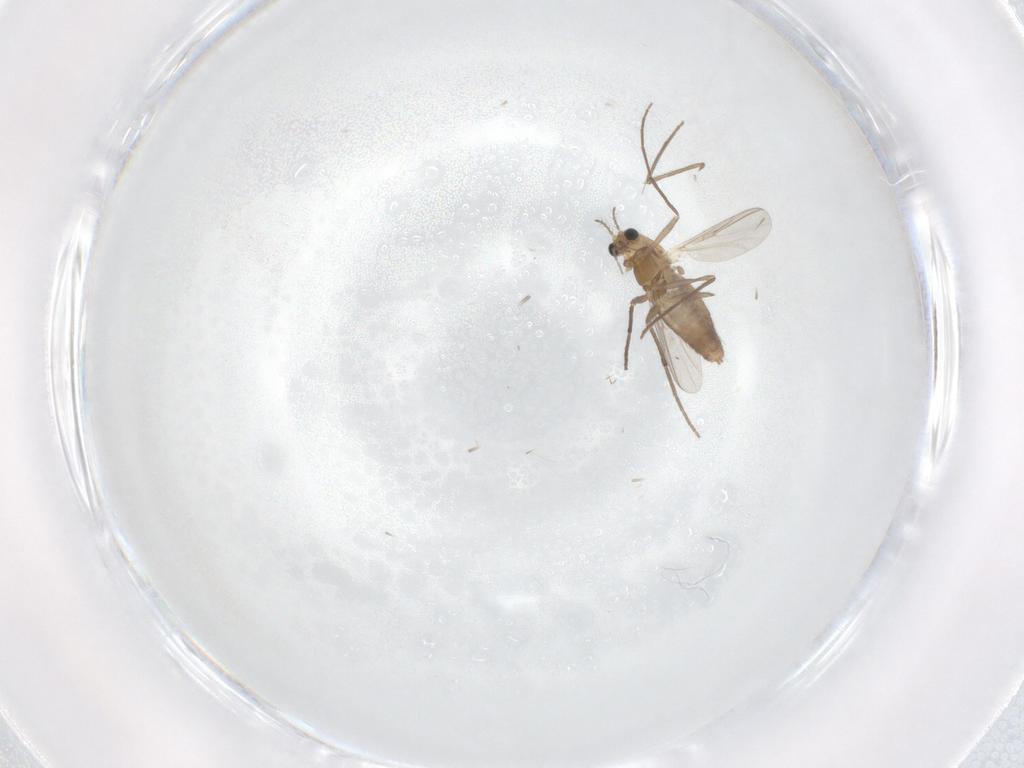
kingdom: Animalia
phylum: Arthropoda
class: Insecta
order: Diptera
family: Chironomidae
